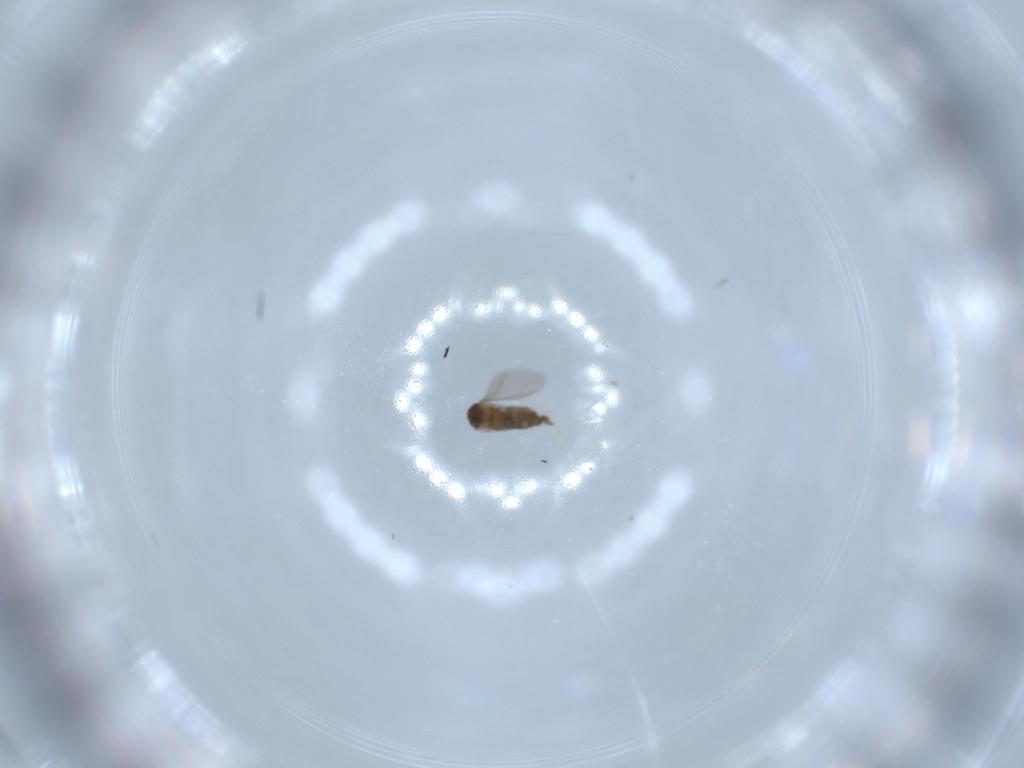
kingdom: Animalia
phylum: Arthropoda
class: Insecta
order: Diptera
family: Cecidomyiidae
